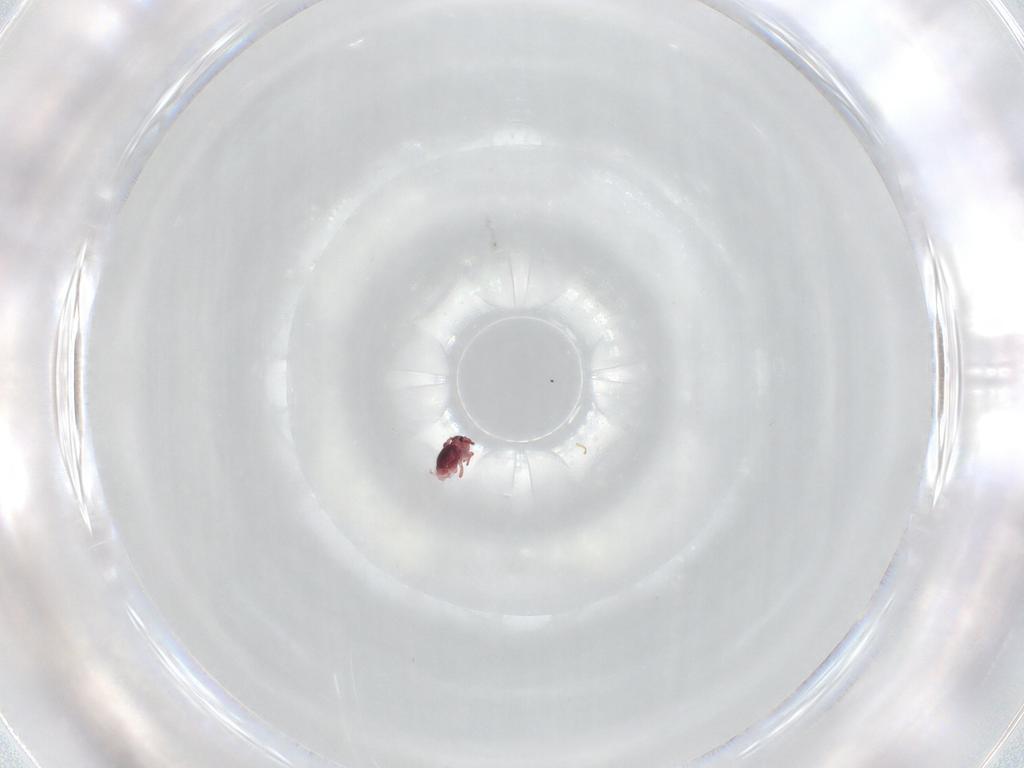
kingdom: Animalia
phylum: Arthropoda
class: Collembola
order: Symphypleona
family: Sminthurididae
